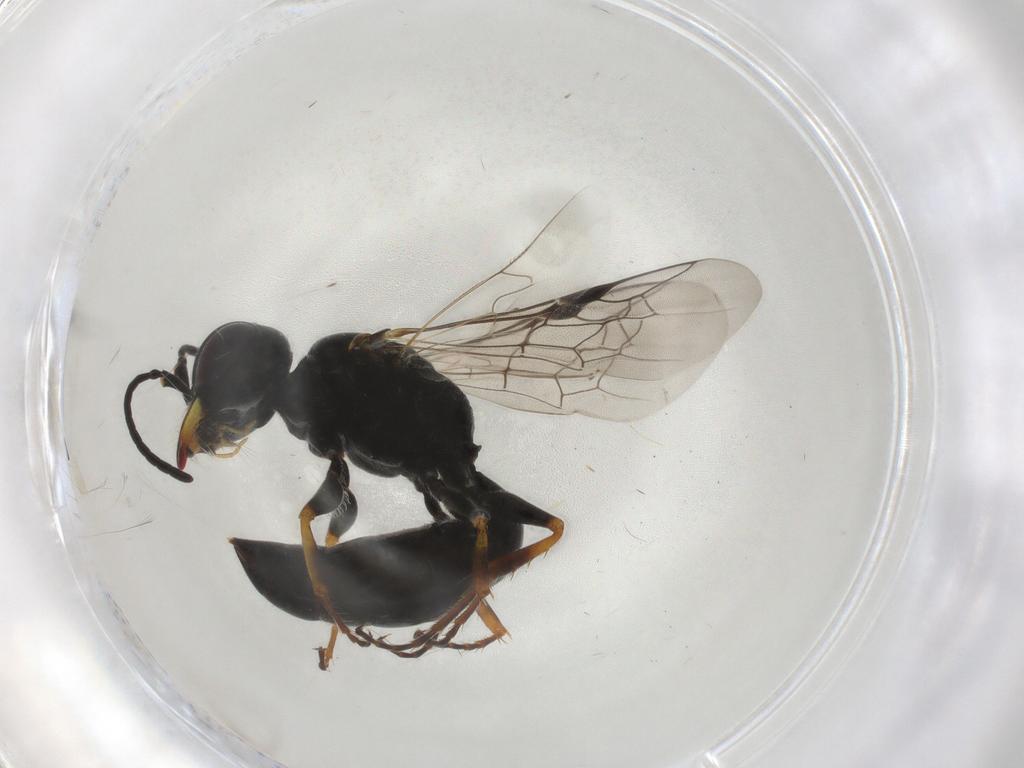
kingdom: Animalia
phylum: Arthropoda
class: Insecta
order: Hymenoptera
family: Pemphredonidae
